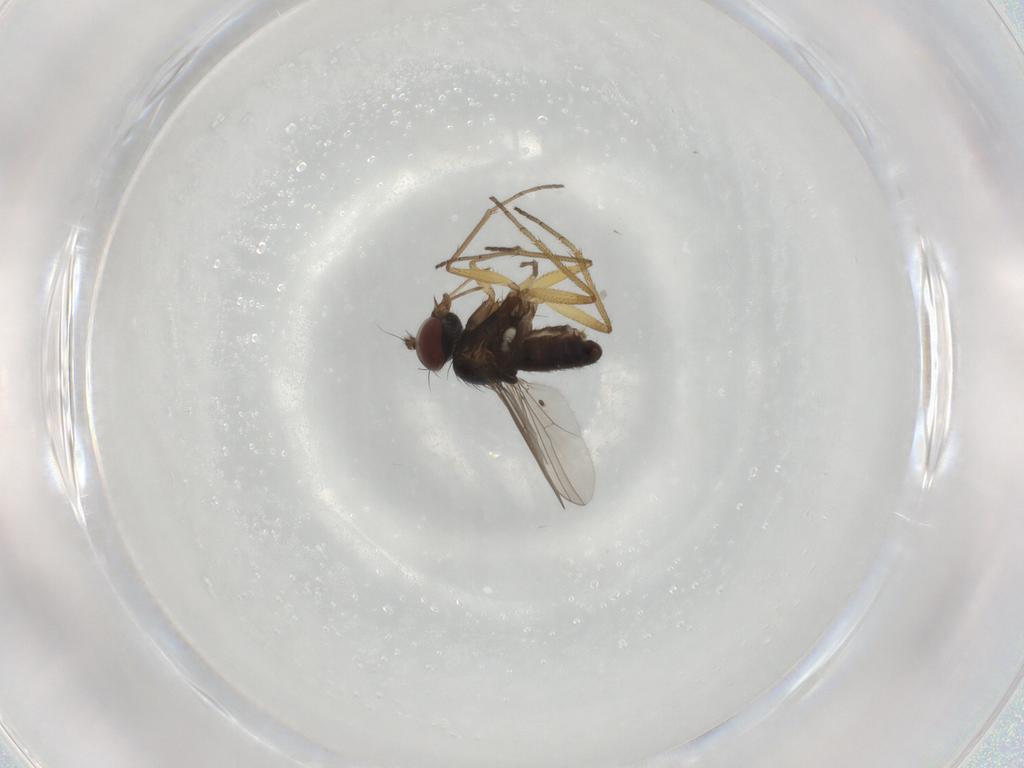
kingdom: Animalia
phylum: Arthropoda
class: Insecta
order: Diptera
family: Dolichopodidae
